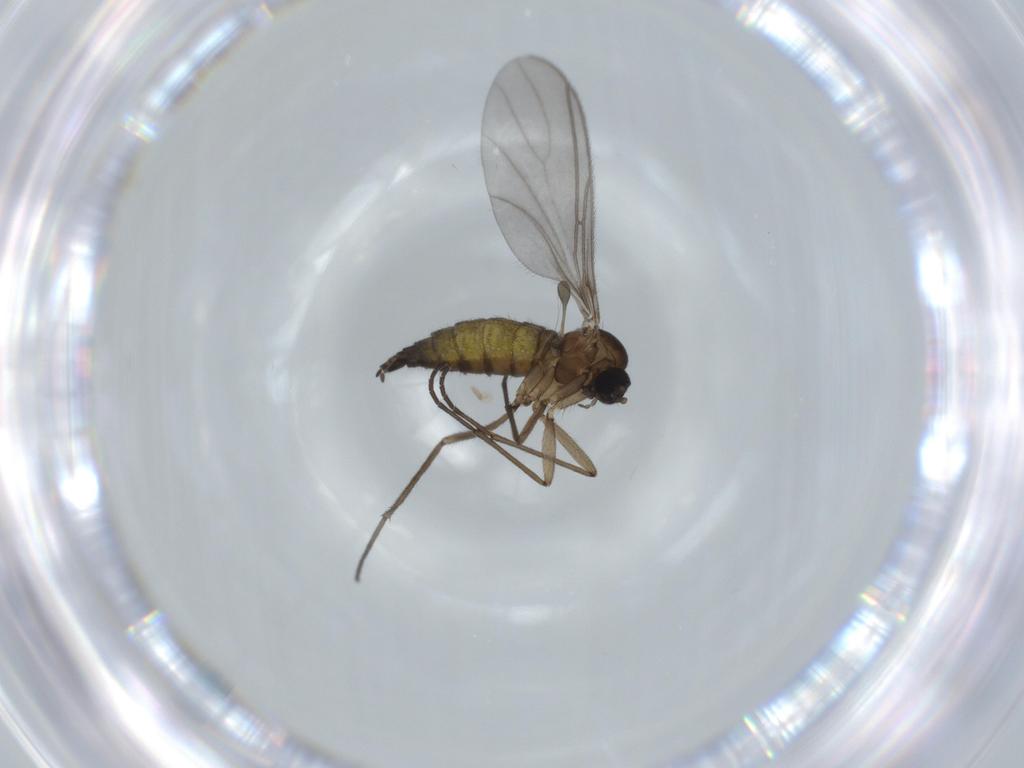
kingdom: Animalia
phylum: Arthropoda
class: Insecta
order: Diptera
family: Sciaridae
